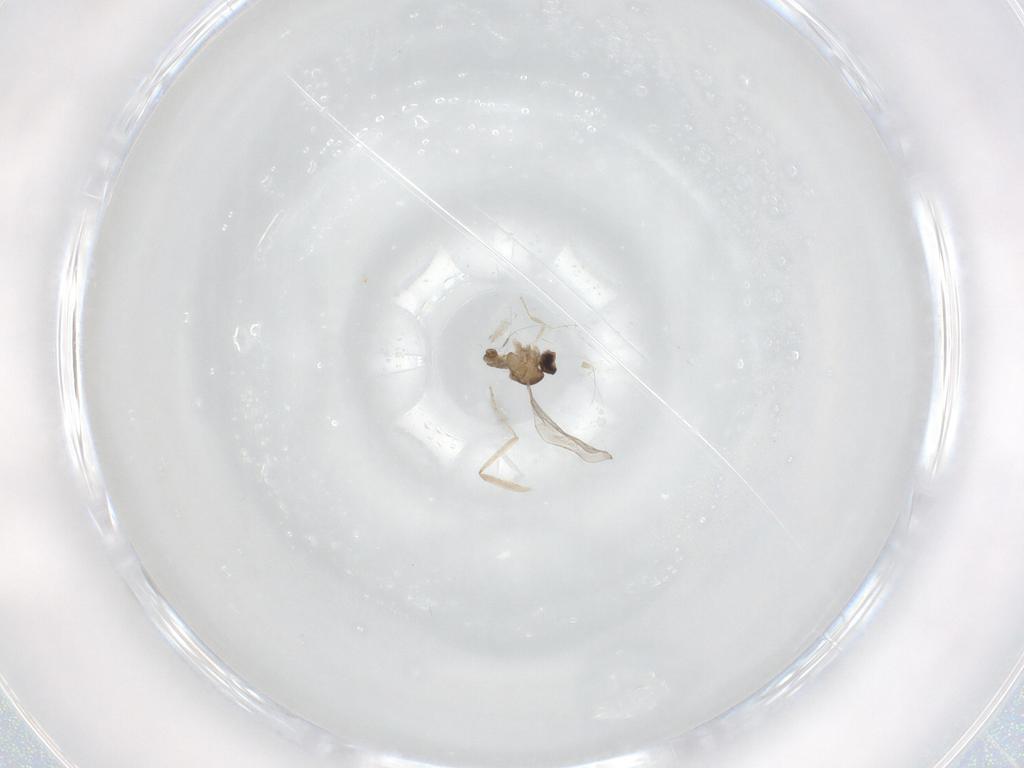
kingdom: Animalia
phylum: Arthropoda
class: Insecta
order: Diptera
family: Cecidomyiidae
